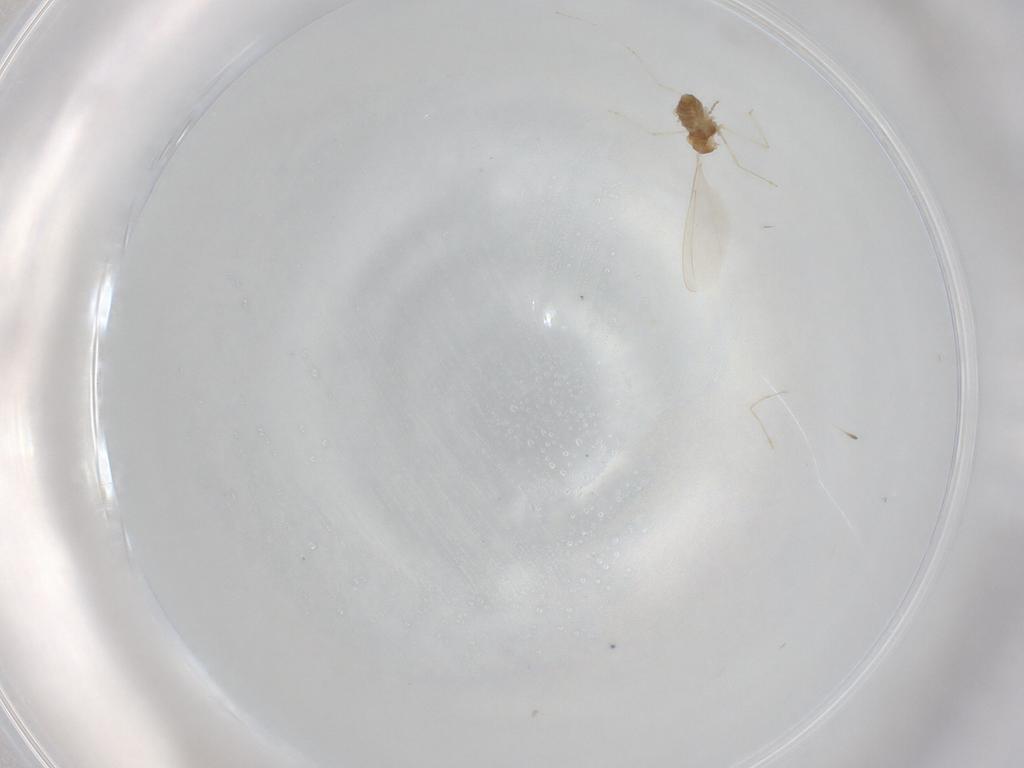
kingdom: Animalia
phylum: Arthropoda
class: Insecta
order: Diptera
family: Cecidomyiidae
